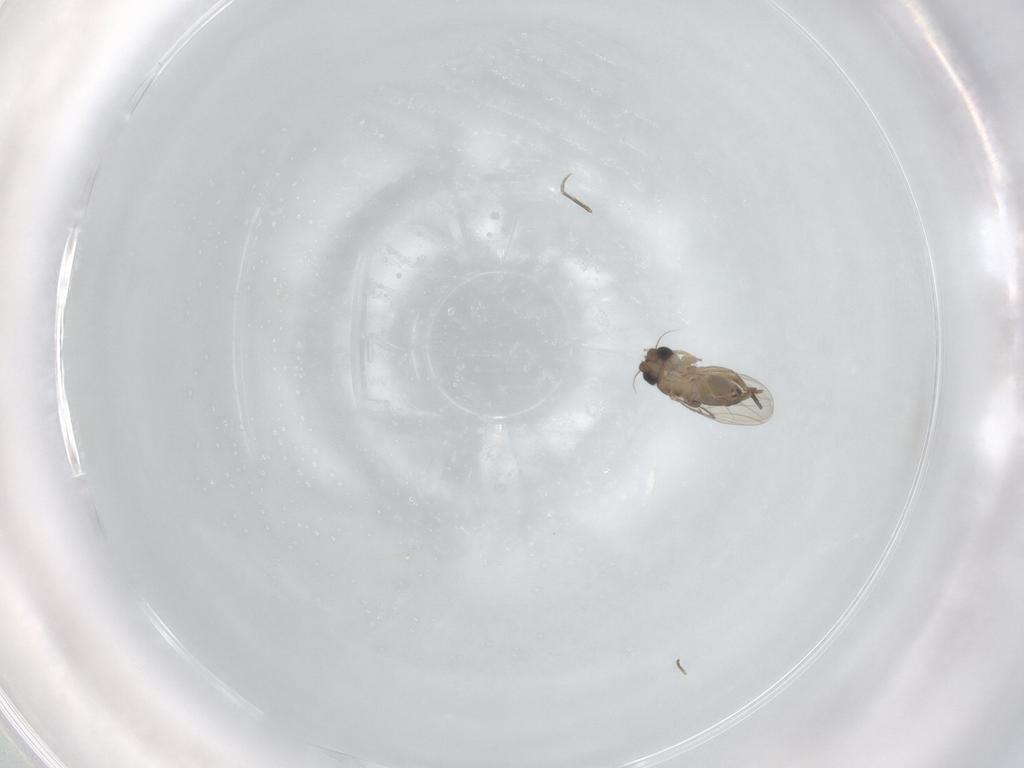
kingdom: Animalia
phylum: Arthropoda
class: Insecta
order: Diptera
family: Phoridae
